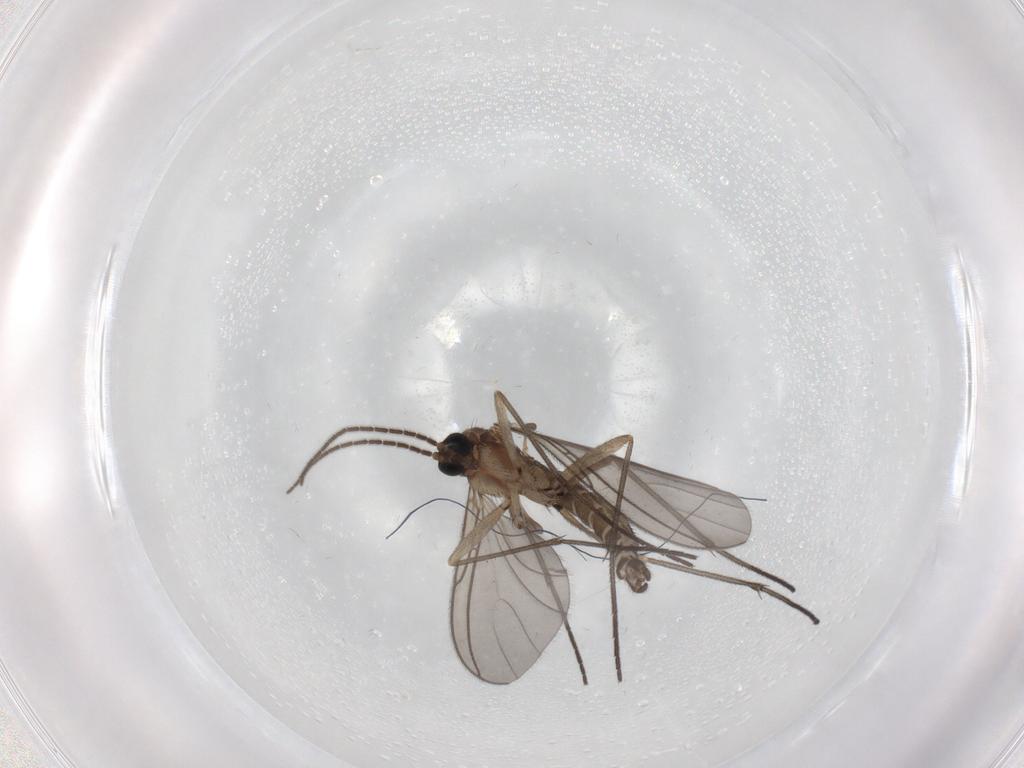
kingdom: Animalia
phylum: Arthropoda
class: Insecta
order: Diptera
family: Sciaridae
